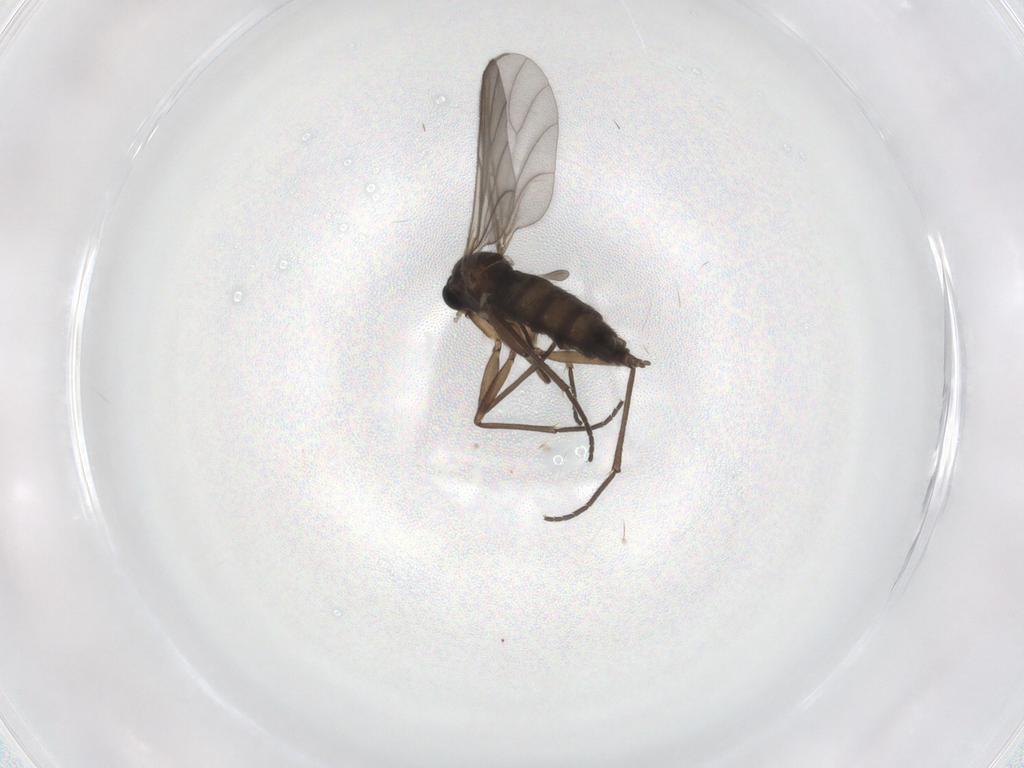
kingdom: Animalia
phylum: Arthropoda
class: Insecta
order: Diptera
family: Sciaridae
